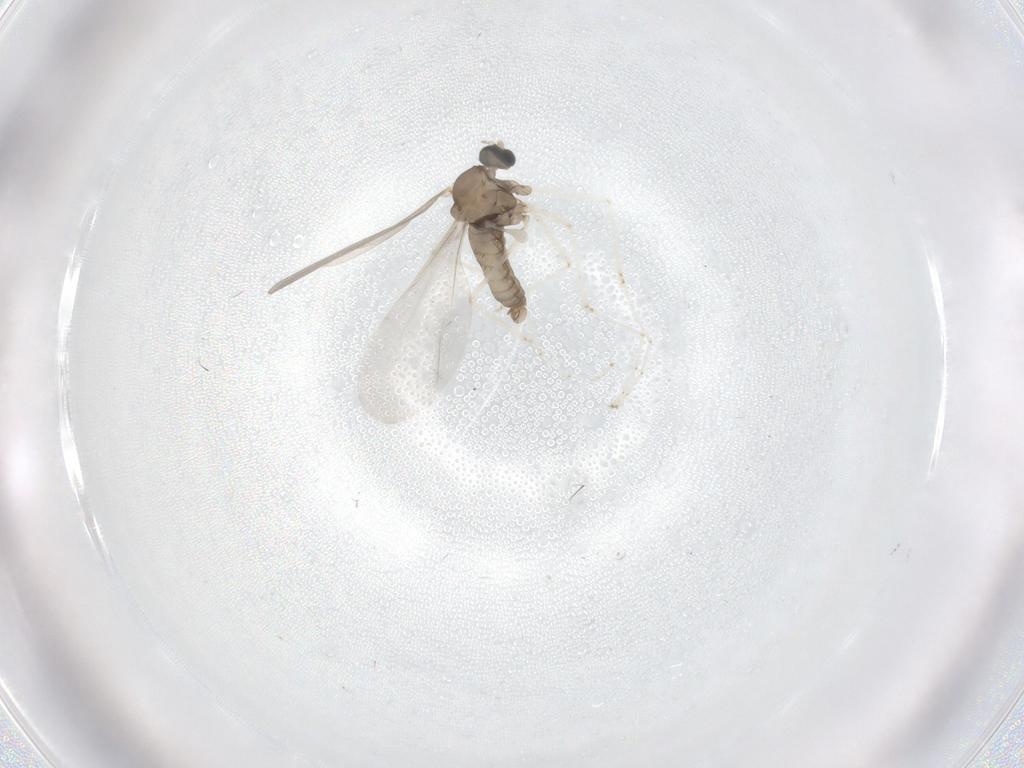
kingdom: Animalia
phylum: Arthropoda
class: Insecta
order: Diptera
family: Cecidomyiidae
